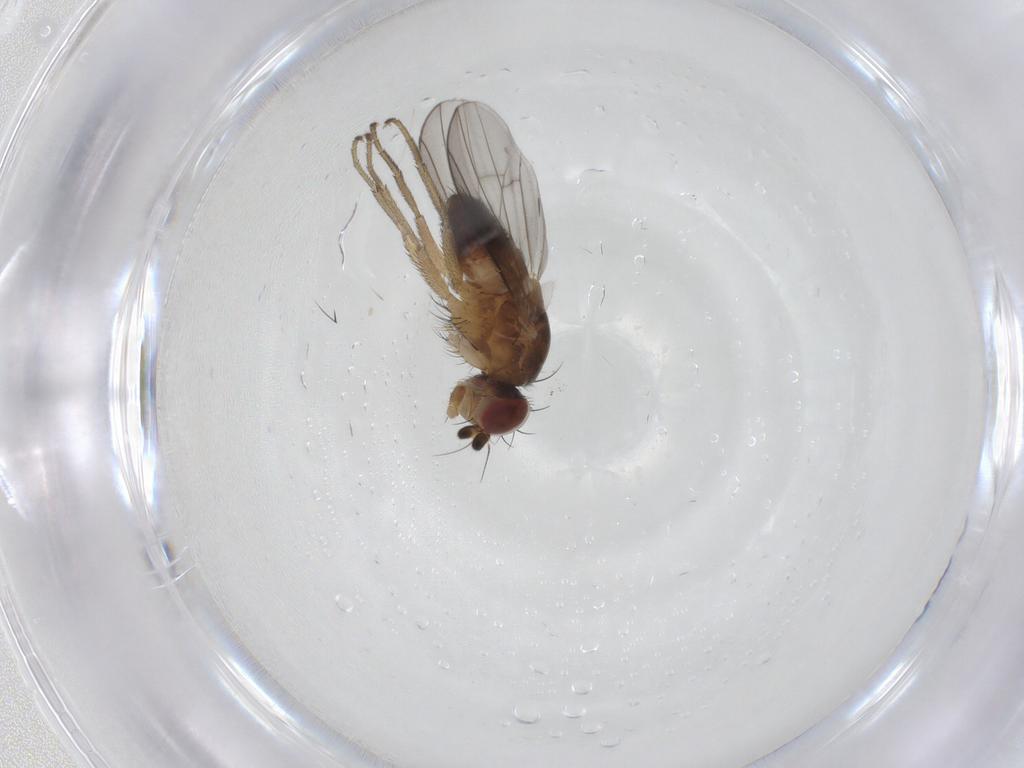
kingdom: Animalia
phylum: Arthropoda
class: Insecta
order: Diptera
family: Heleomyzidae
